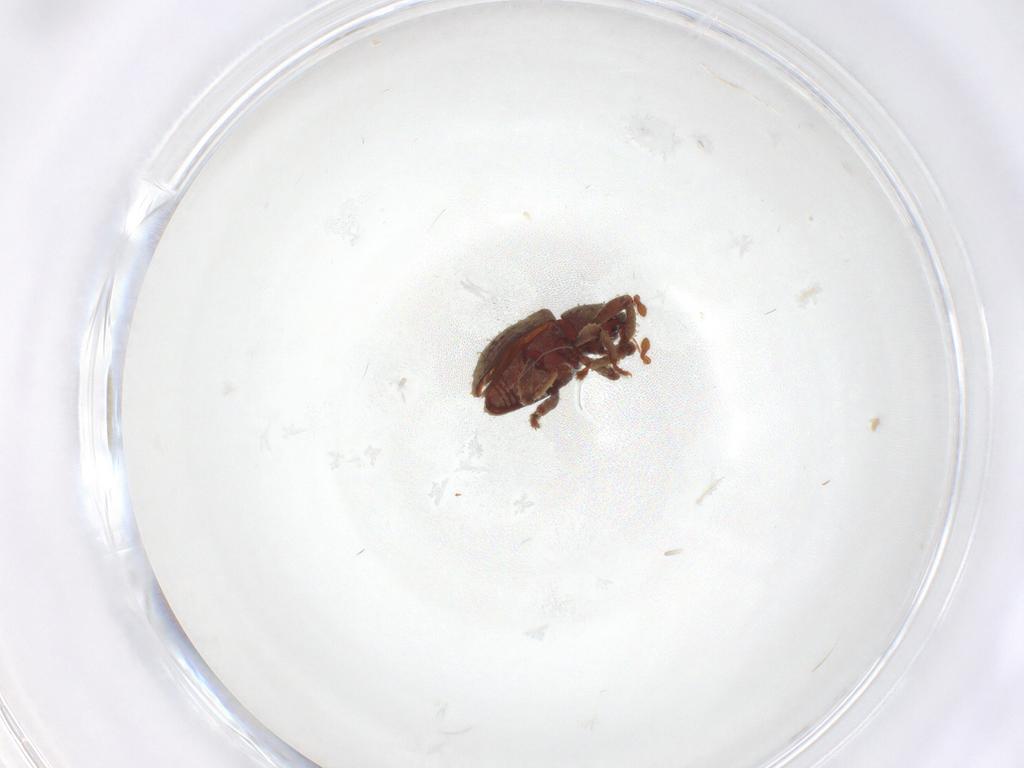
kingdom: Animalia
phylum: Arthropoda
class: Insecta
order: Coleoptera
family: Curculionidae
